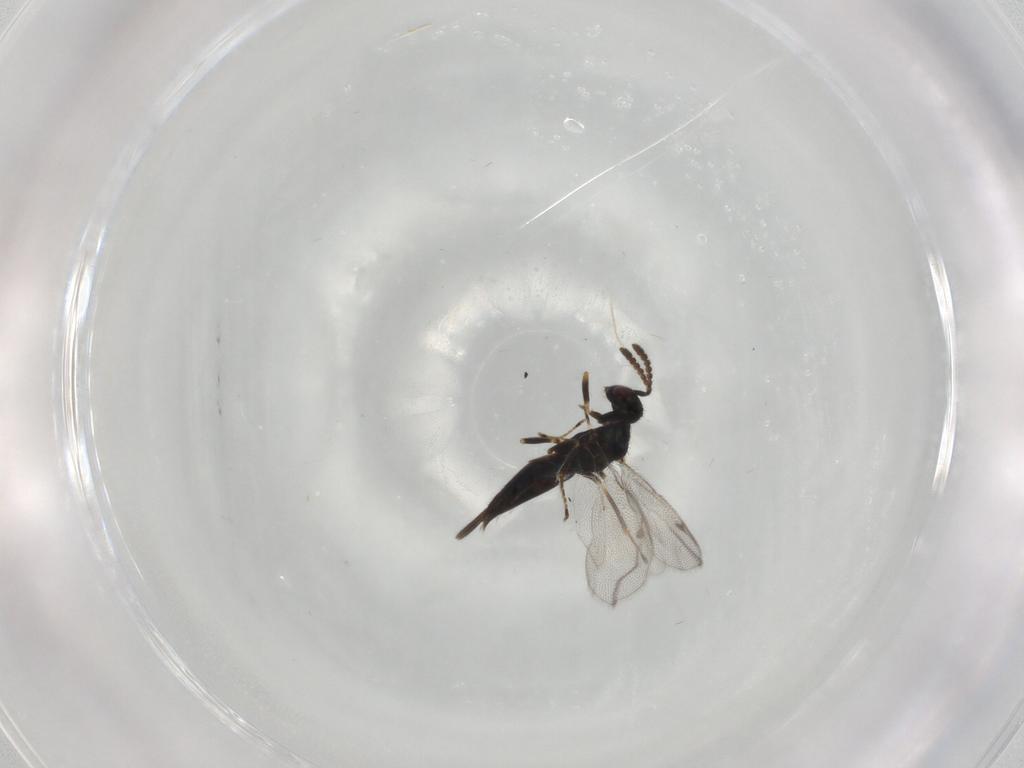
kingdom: Animalia
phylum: Arthropoda
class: Insecta
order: Hymenoptera
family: Pirenidae
